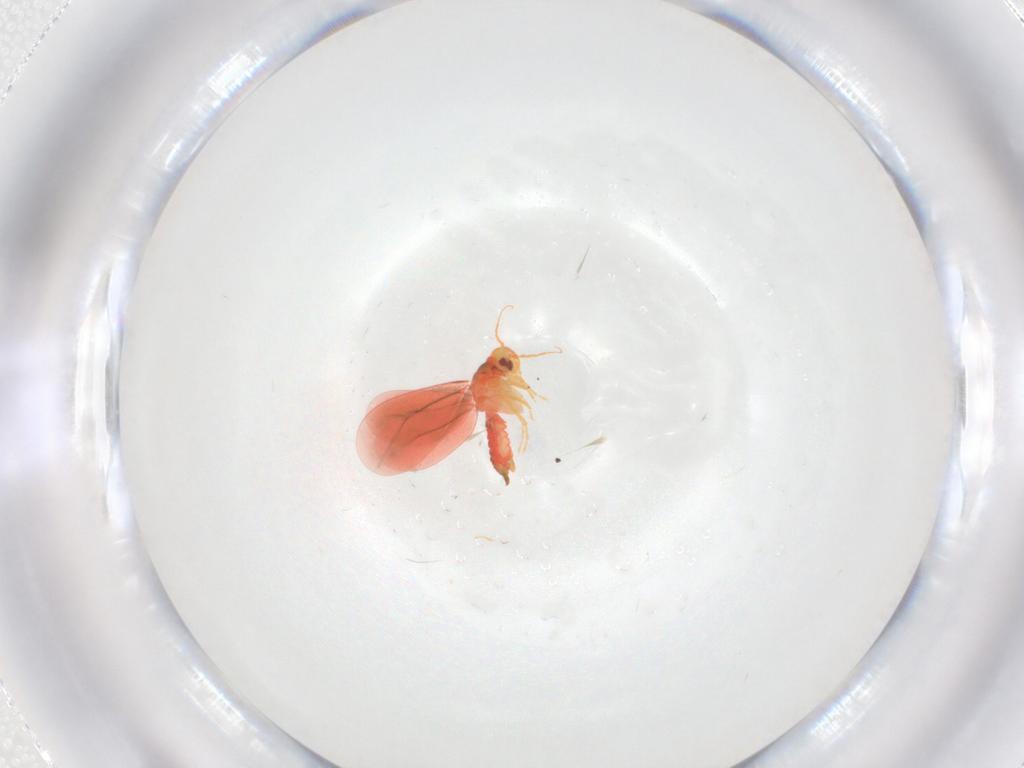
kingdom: Animalia
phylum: Arthropoda
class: Insecta
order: Hemiptera
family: Aleyrodidae
